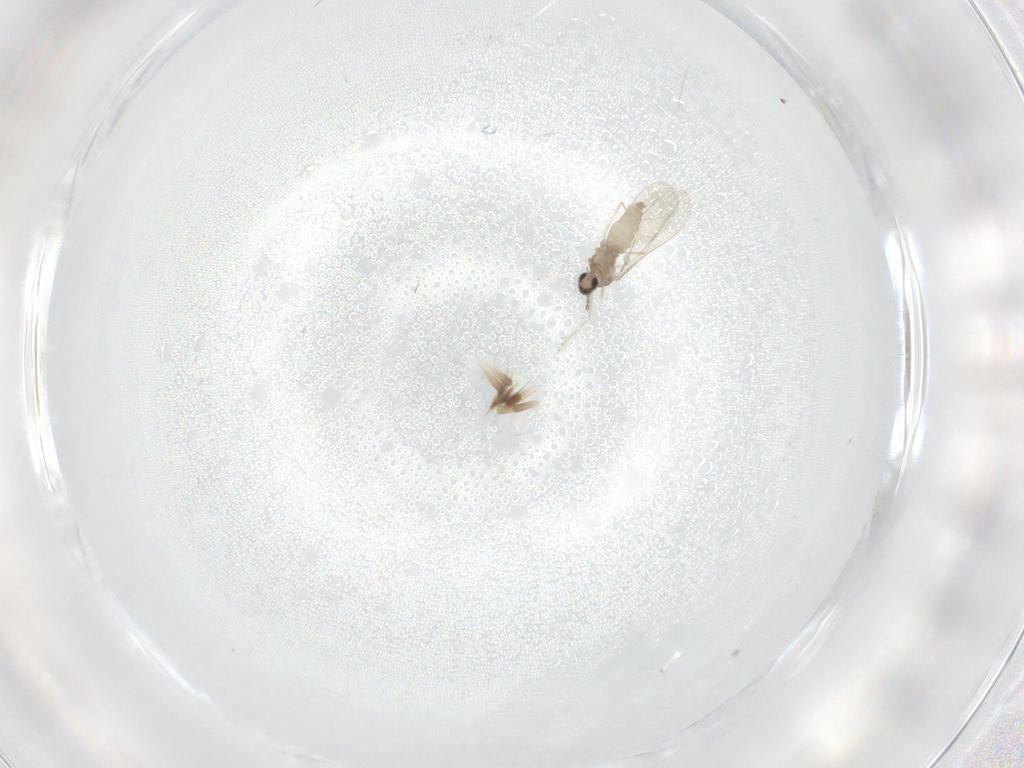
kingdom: Animalia
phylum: Arthropoda
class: Insecta
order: Diptera
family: Cecidomyiidae
